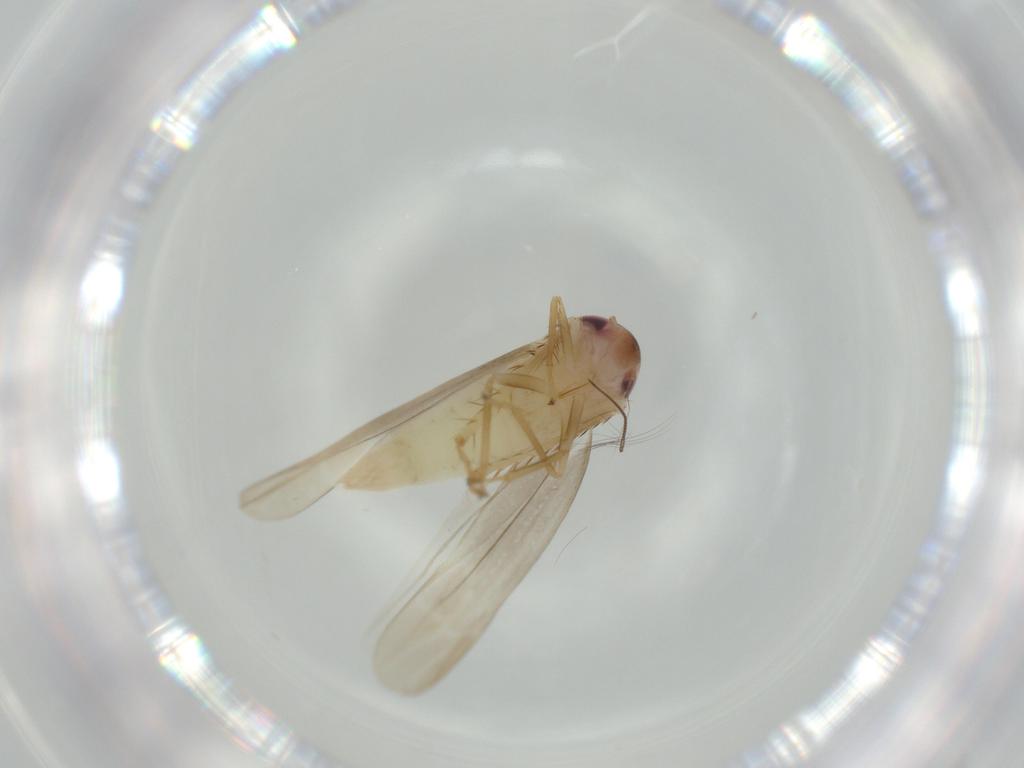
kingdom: Animalia
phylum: Arthropoda
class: Insecta
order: Hemiptera
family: Cicadellidae
